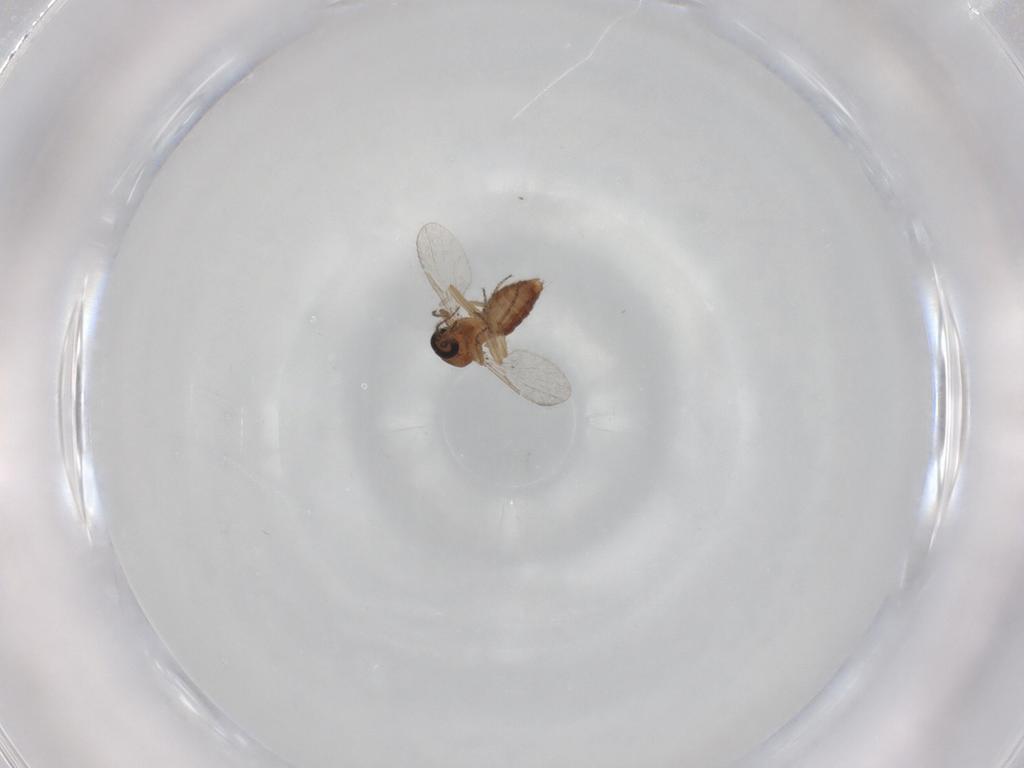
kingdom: Animalia
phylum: Arthropoda
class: Insecta
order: Diptera
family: Ceratopogonidae
